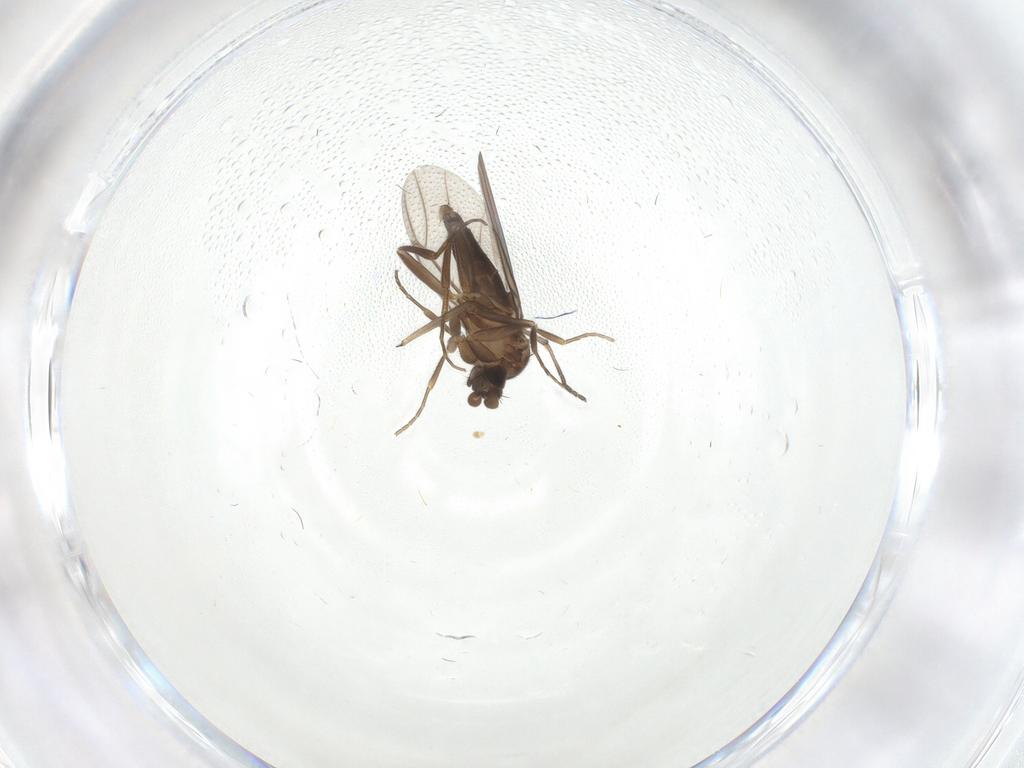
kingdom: Animalia
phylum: Arthropoda
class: Insecta
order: Diptera
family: Chironomidae
